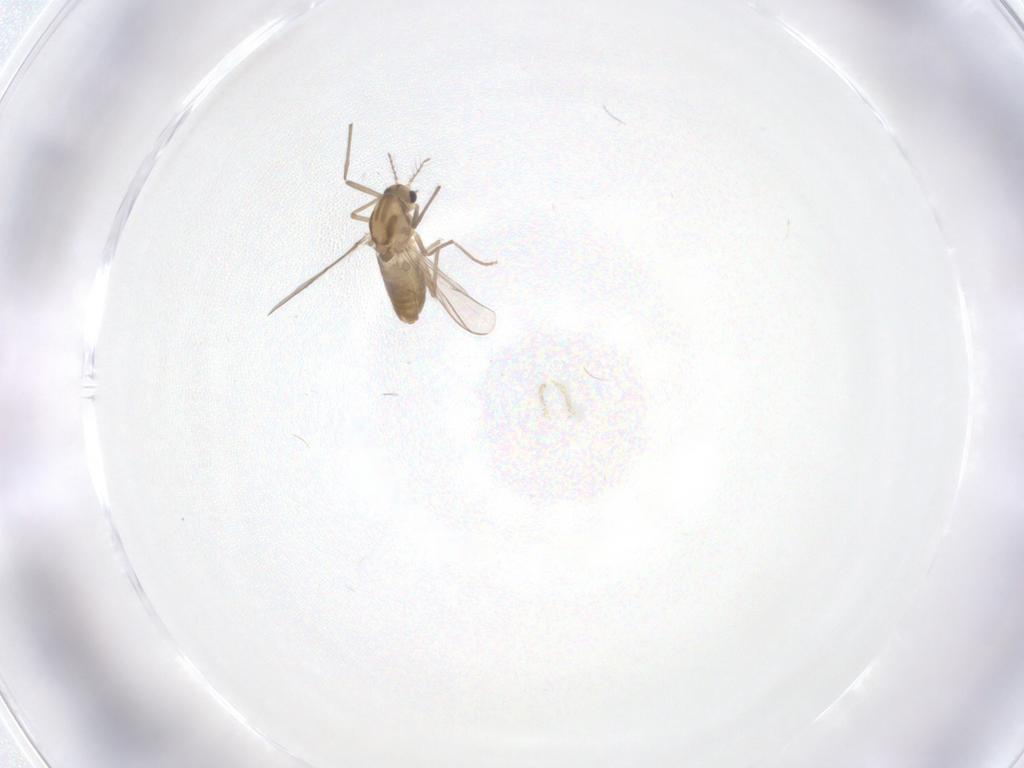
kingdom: Animalia
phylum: Arthropoda
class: Insecta
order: Diptera
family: Chironomidae
